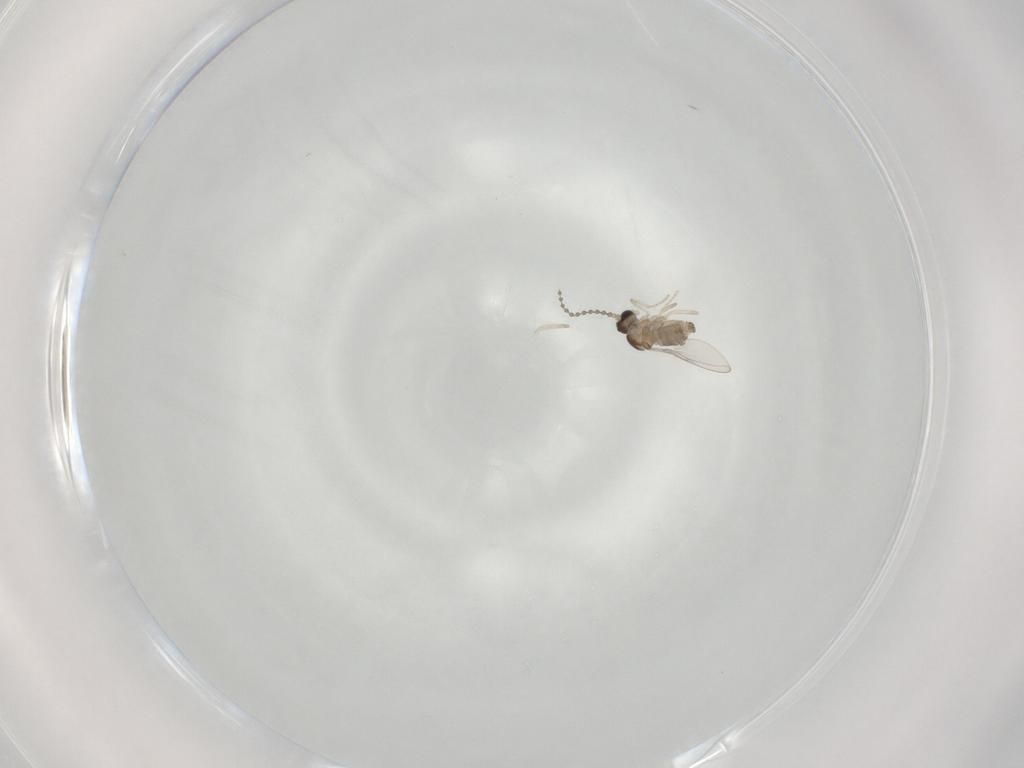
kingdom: Animalia
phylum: Arthropoda
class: Insecta
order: Diptera
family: Cecidomyiidae
